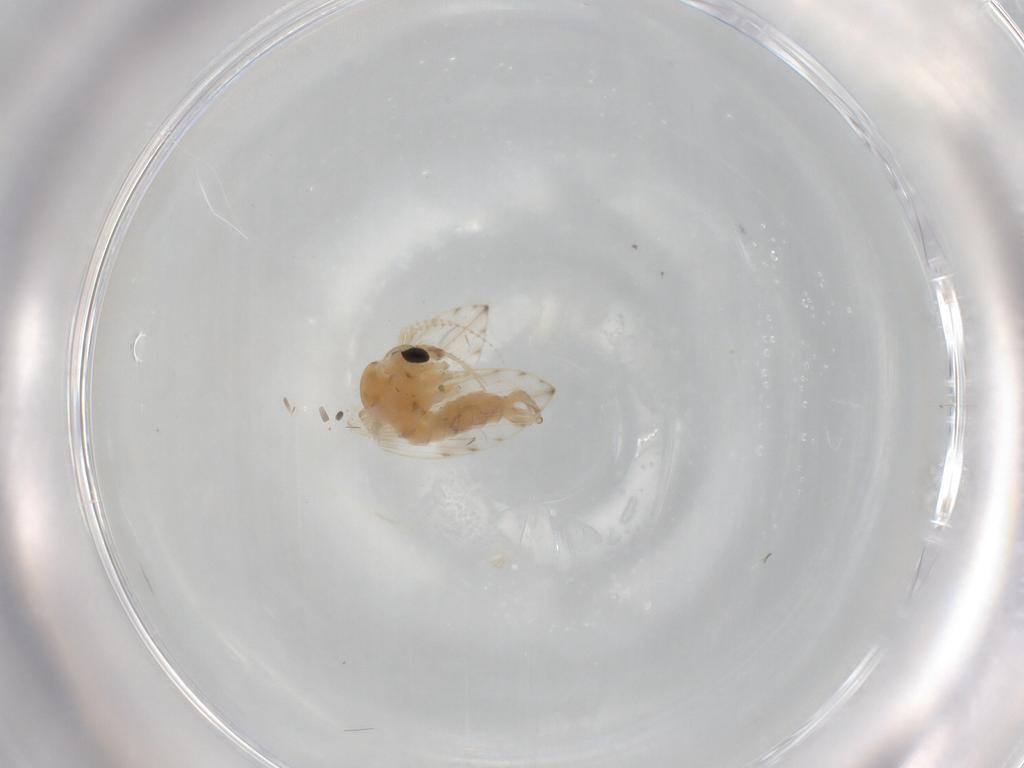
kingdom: Animalia
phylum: Arthropoda
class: Insecta
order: Diptera
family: Psychodidae
